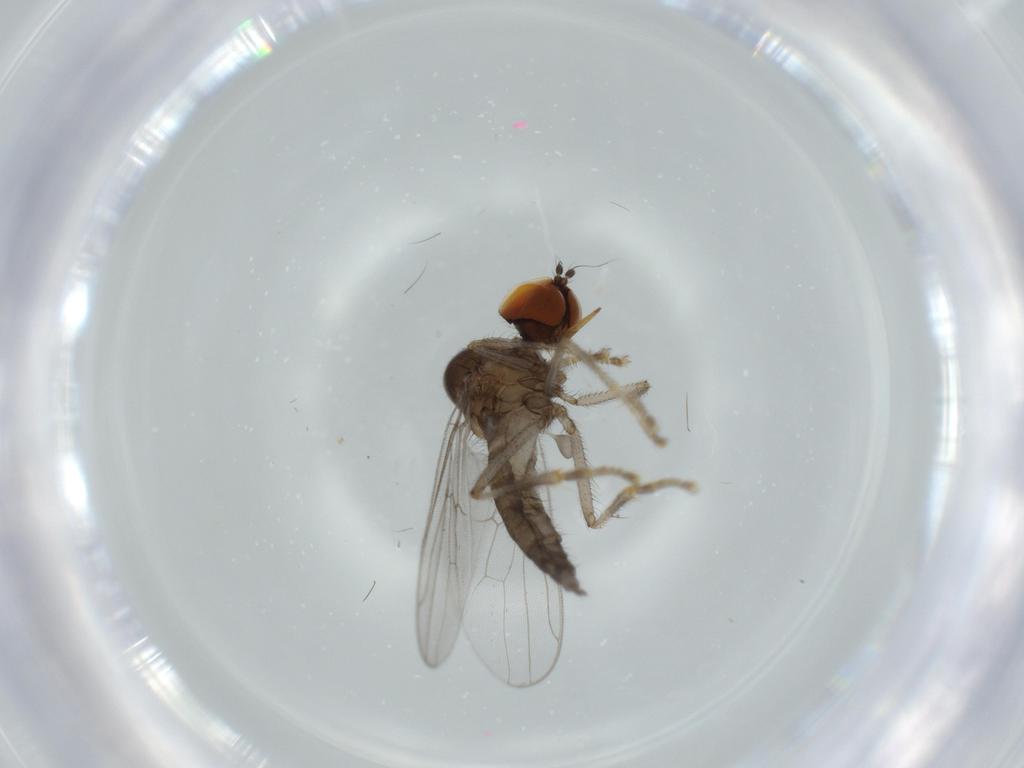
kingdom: Animalia
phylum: Arthropoda
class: Insecta
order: Diptera
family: Hybotidae
